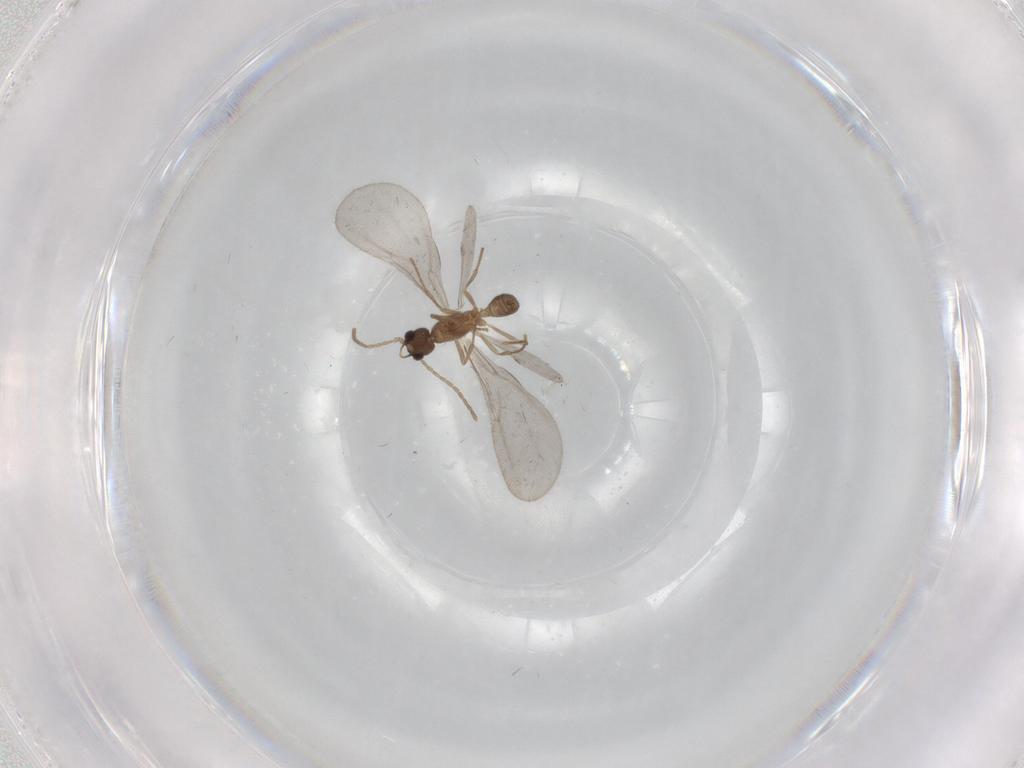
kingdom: Animalia
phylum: Arthropoda
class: Insecta
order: Hymenoptera
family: Formicidae
